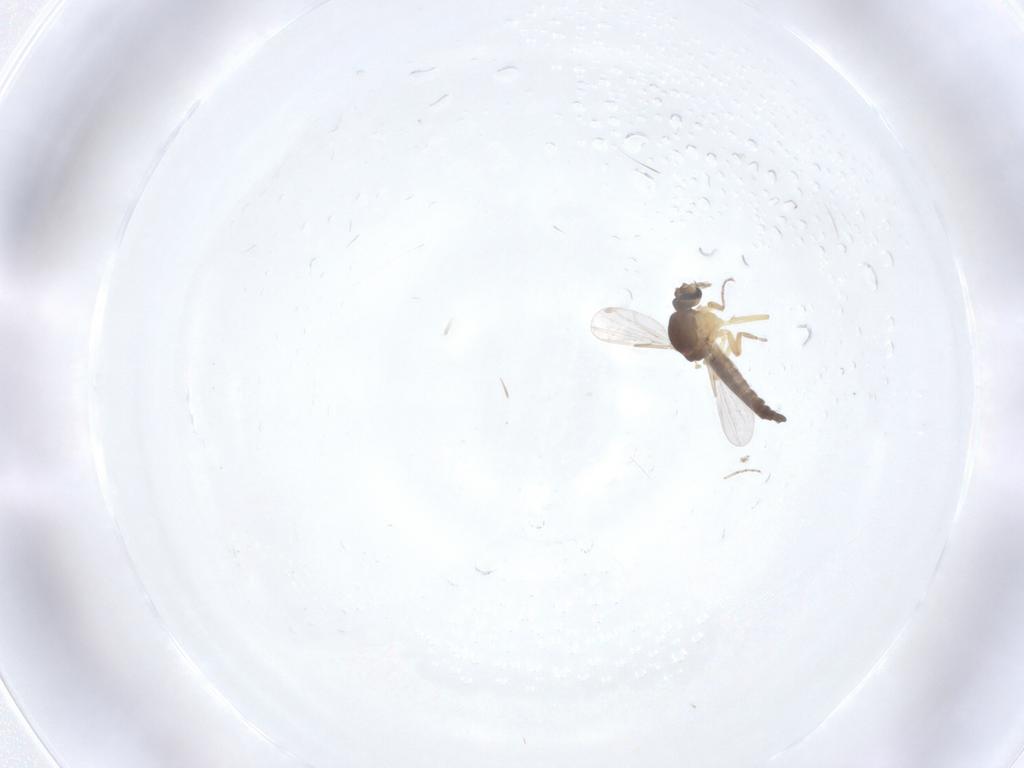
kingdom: Animalia
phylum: Arthropoda
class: Insecta
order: Diptera
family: Ceratopogonidae
